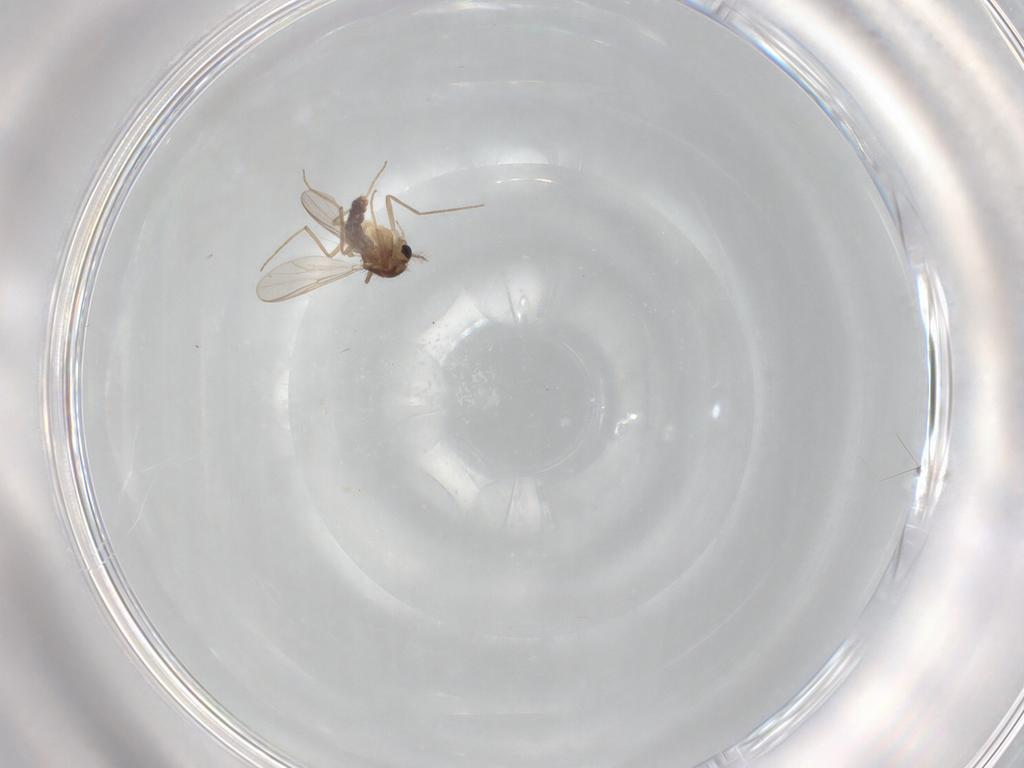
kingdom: Animalia
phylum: Arthropoda
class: Insecta
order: Diptera
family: Chironomidae
